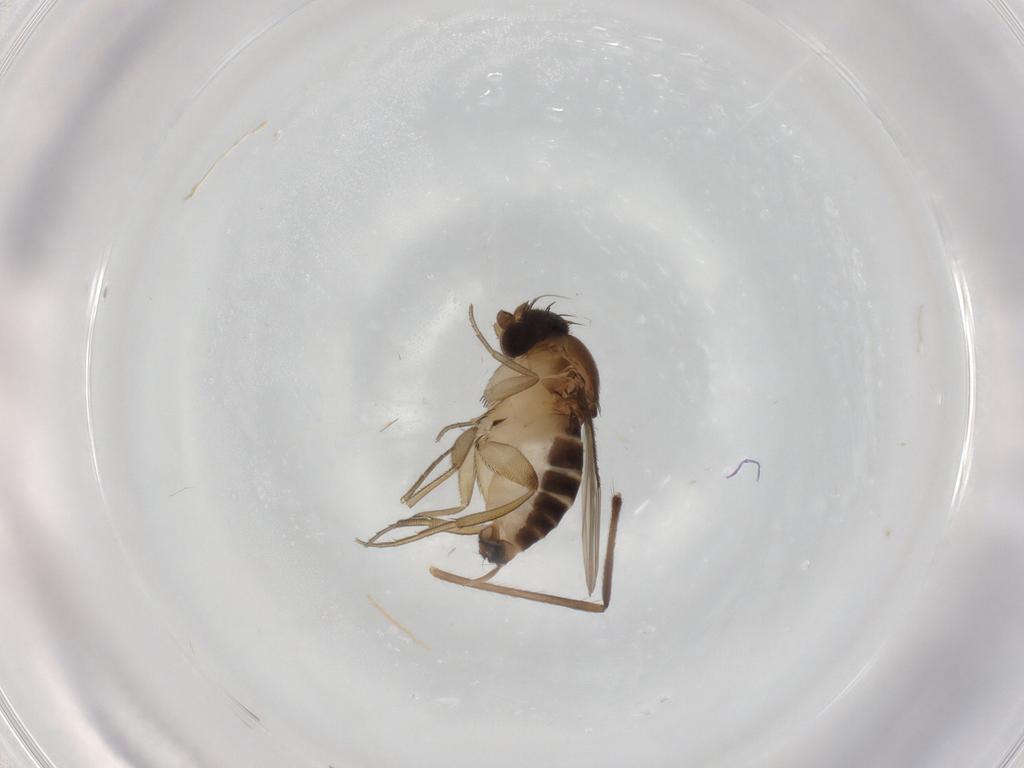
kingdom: Animalia
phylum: Arthropoda
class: Insecta
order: Diptera
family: Phoridae
